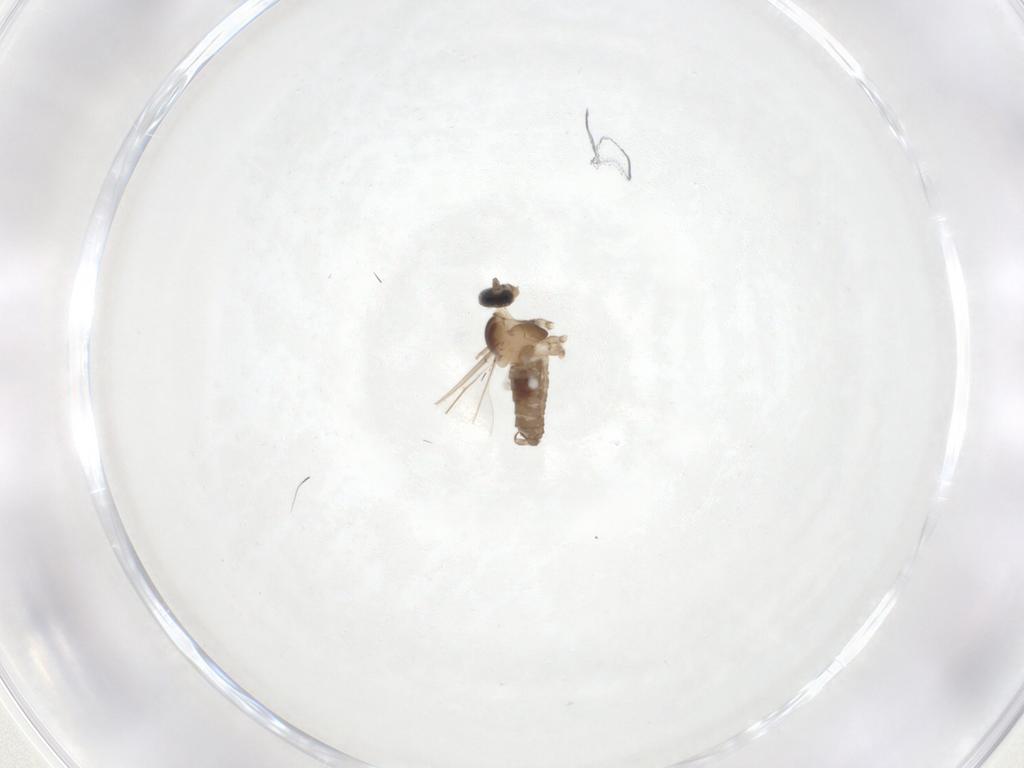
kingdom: Animalia
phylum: Arthropoda
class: Insecta
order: Diptera
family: Cecidomyiidae
